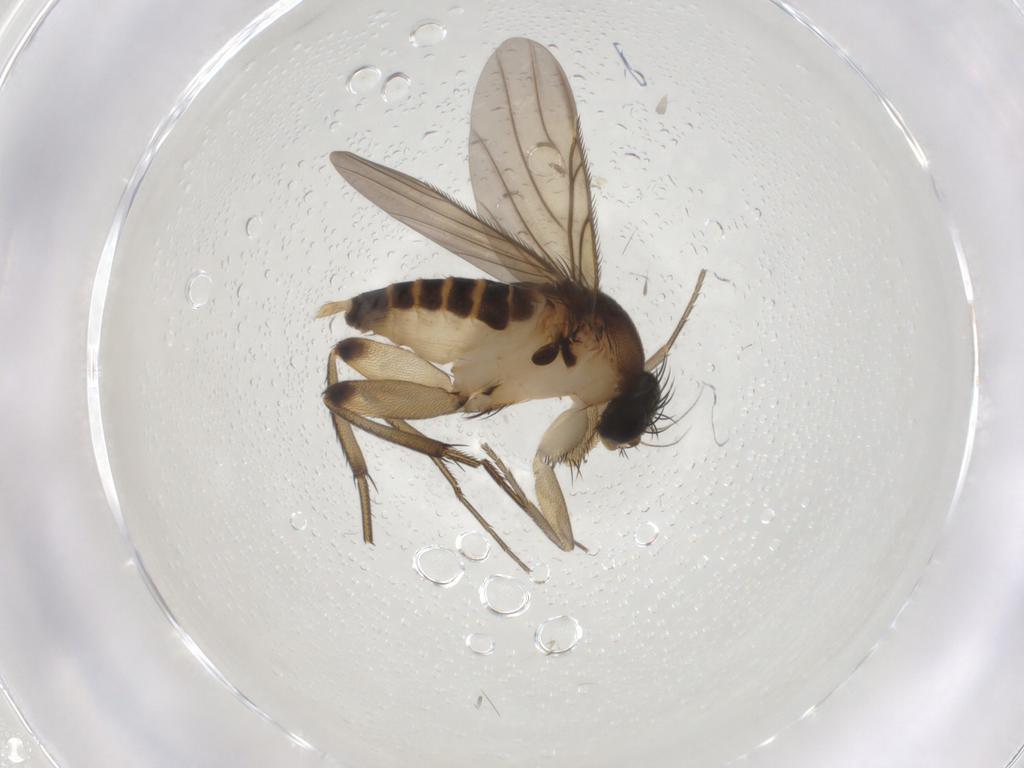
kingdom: Animalia
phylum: Arthropoda
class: Insecta
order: Diptera
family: Phoridae
